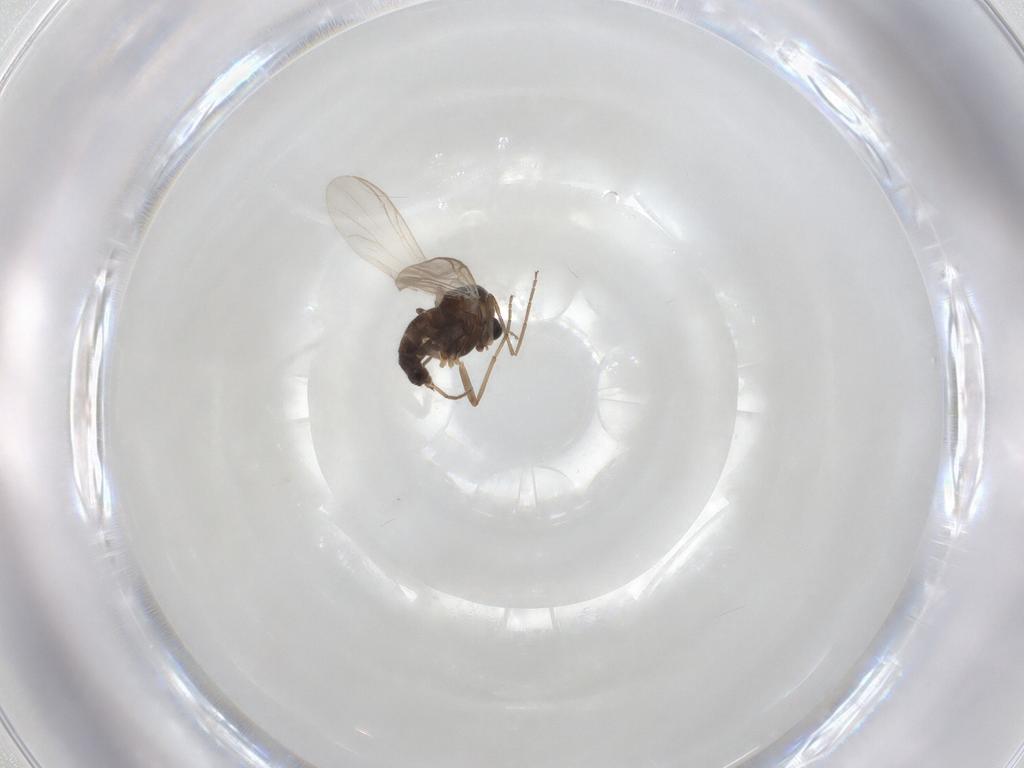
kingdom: Animalia
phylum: Arthropoda
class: Insecta
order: Diptera
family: Chironomidae
